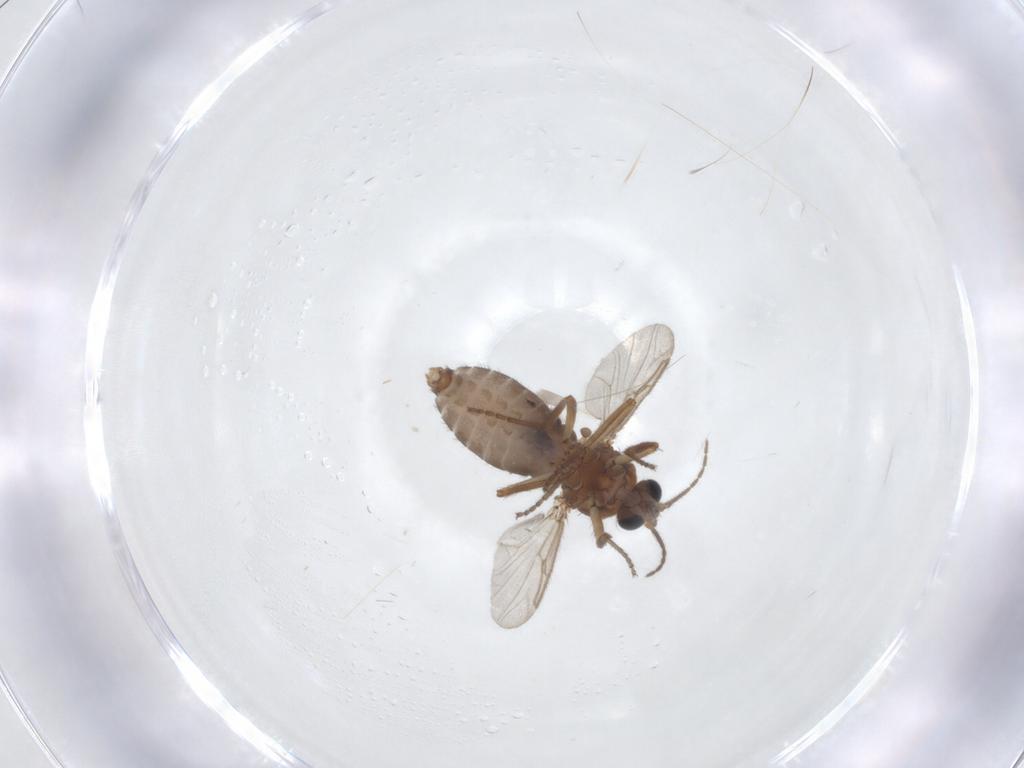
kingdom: Animalia
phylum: Arthropoda
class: Insecta
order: Diptera
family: Ceratopogonidae
